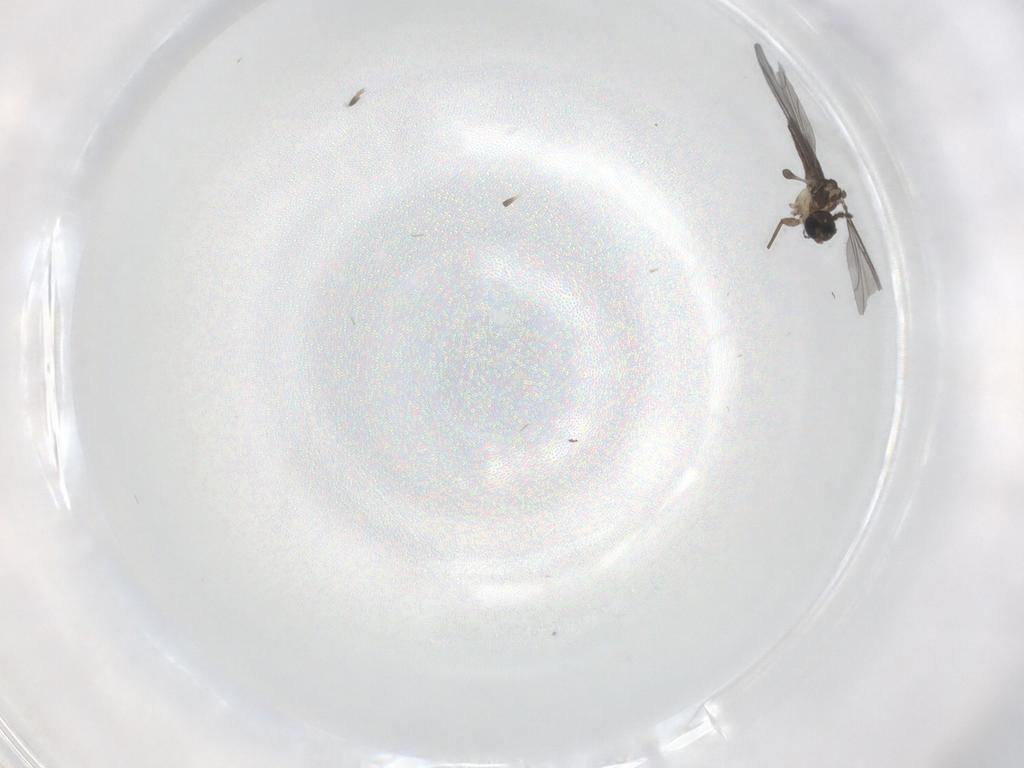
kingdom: Animalia
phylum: Arthropoda
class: Insecta
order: Diptera
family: Sciaridae
